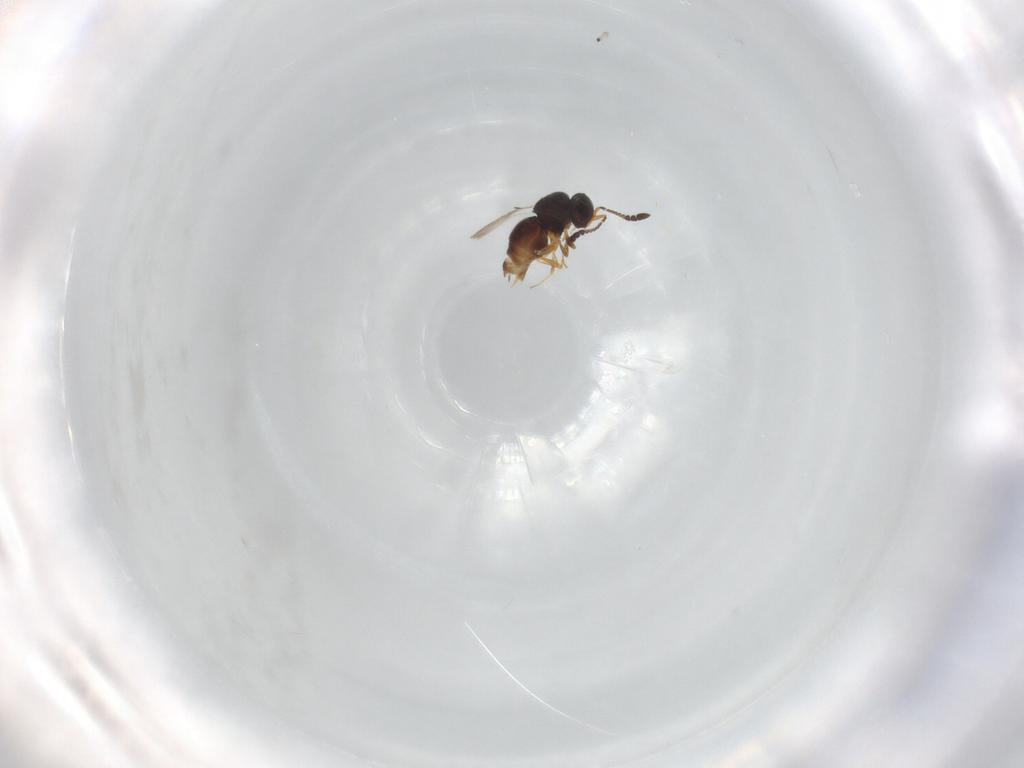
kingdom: Animalia
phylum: Arthropoda
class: Insecta
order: Hymenoptera
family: Scelionidae
